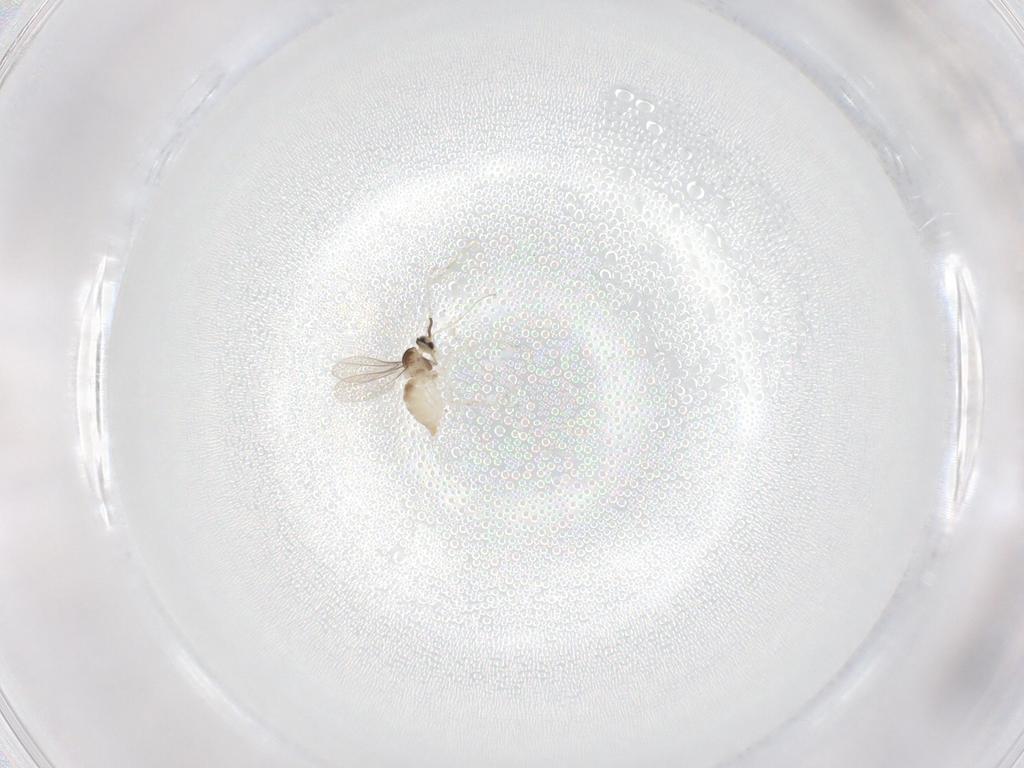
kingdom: Animalia
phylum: Arthropoda
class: Insecta
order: Diptera
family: Cecidomyiidae
